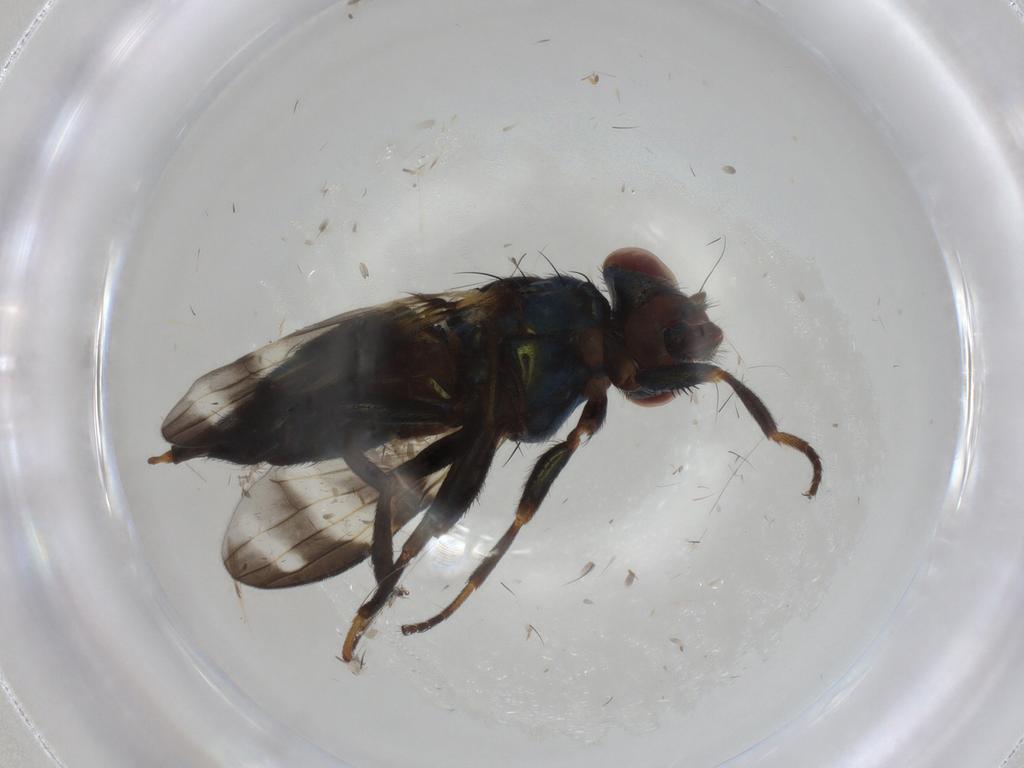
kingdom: Animalia
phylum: Arthropoda
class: Insecta
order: Diptera
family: Ulidiidae
